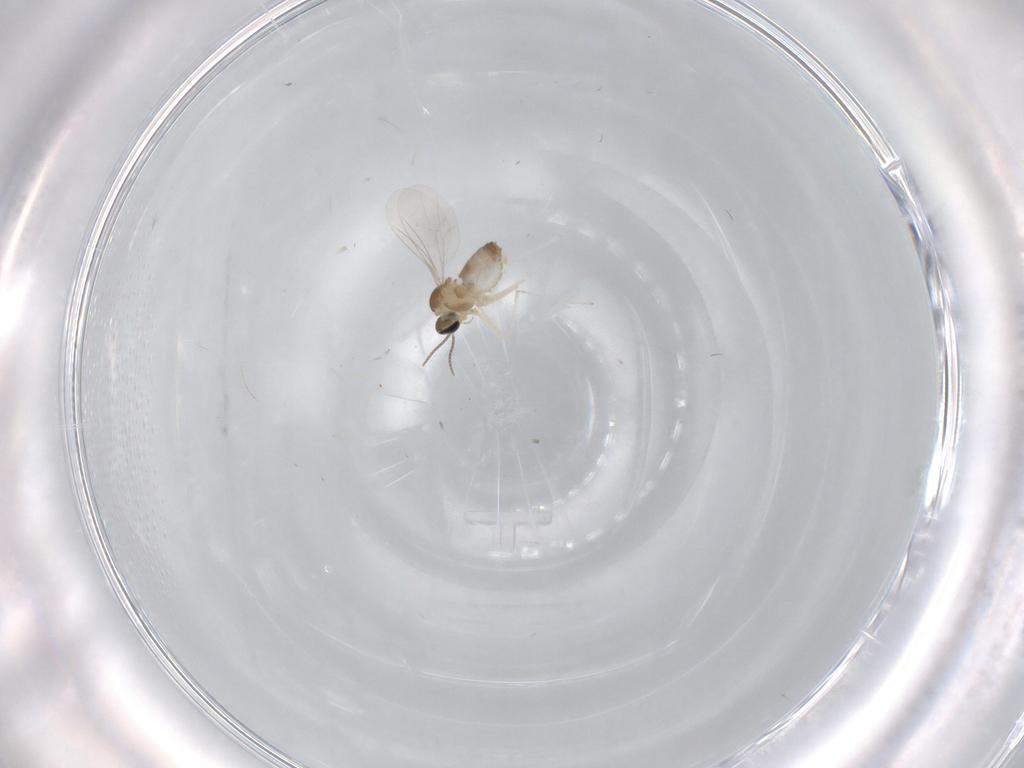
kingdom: Animalia
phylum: Arthropoda
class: Insecta
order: Diptera
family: Cecidomyiidae
